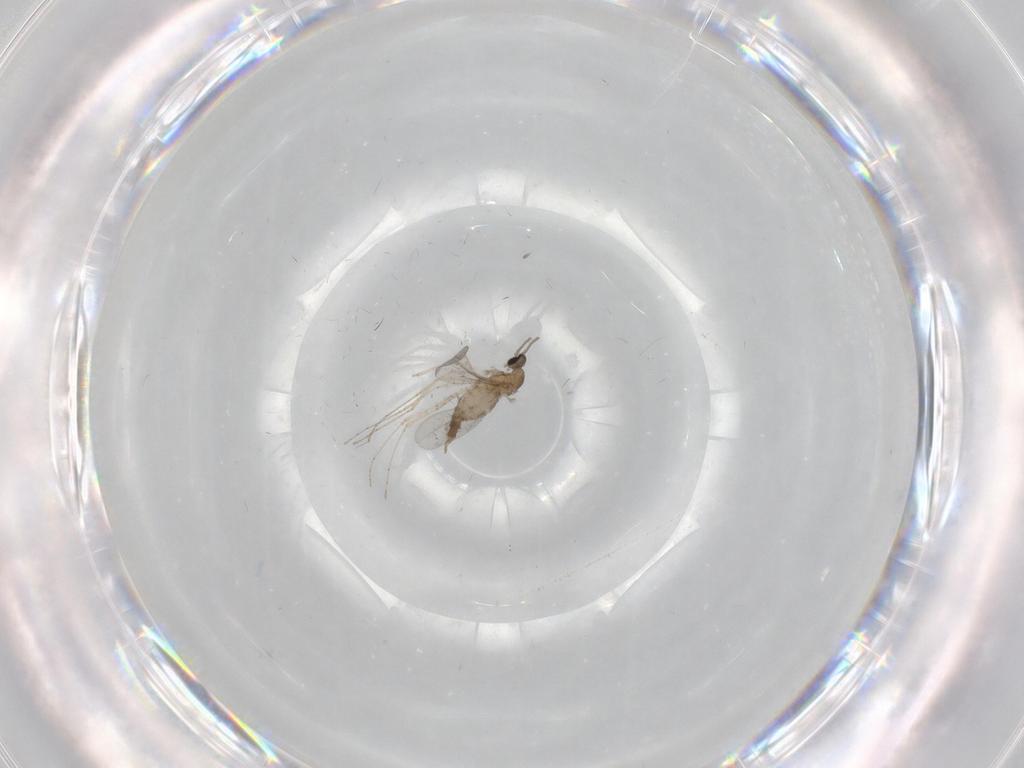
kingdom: Animalia
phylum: Arthropoda
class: Insecta
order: Diptera
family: Cecidomyiidae
